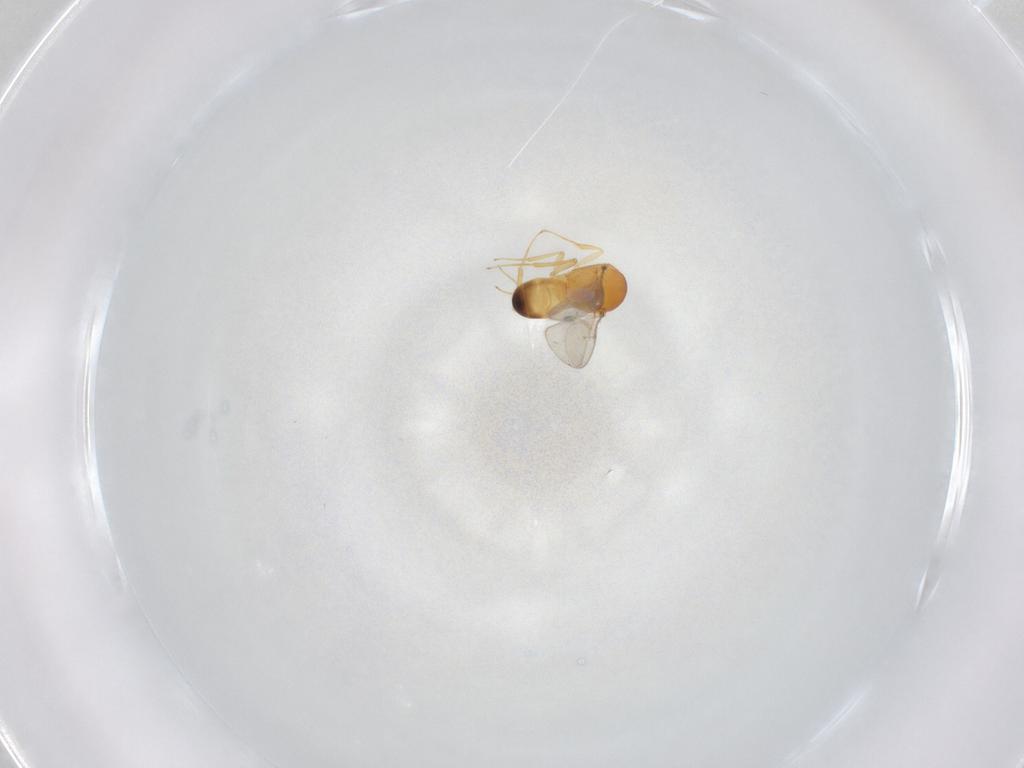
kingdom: Animalia
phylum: Arthropoda
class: Insecta
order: Hymenoptera
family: Scelionidae
